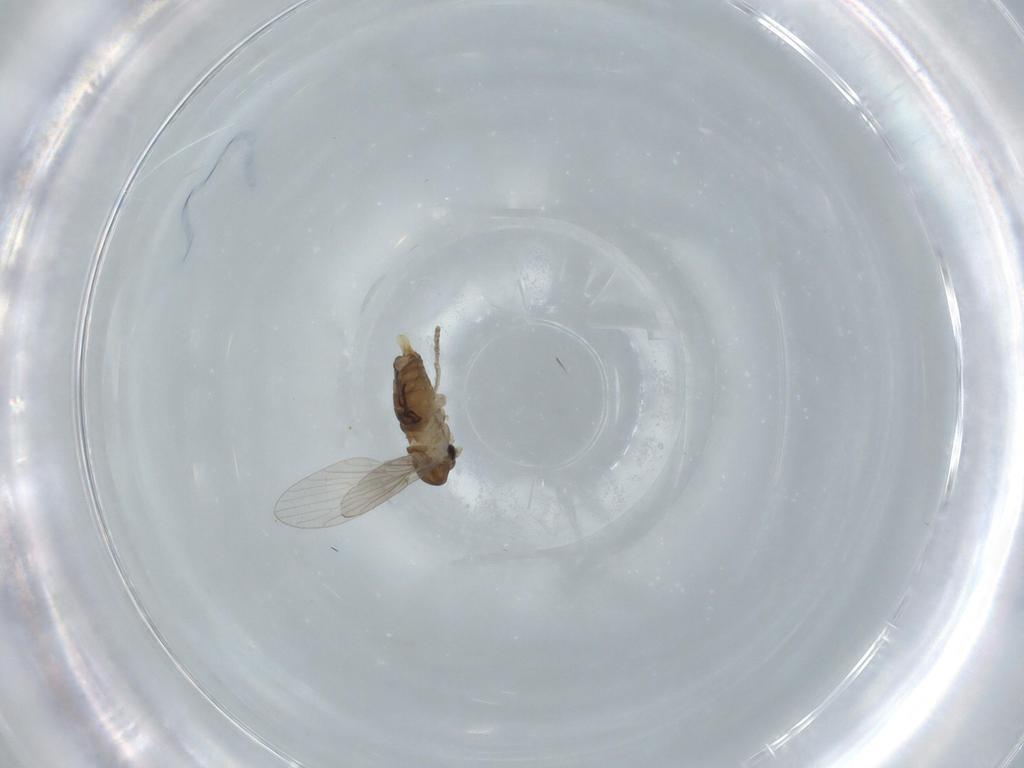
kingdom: Animalia
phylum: Arthropoda
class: Insecta
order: Diptera
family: Psychodidae
